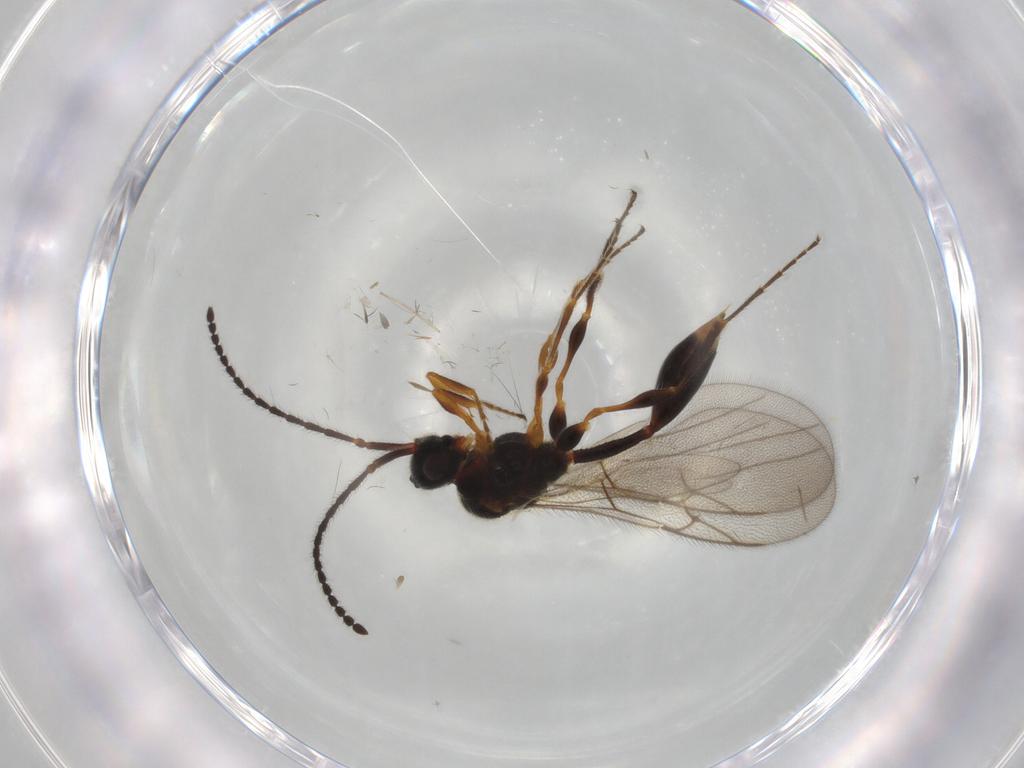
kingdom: Animalia
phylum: Arthropoda
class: Insecta
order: Hymenoptera
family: Diapriidae
